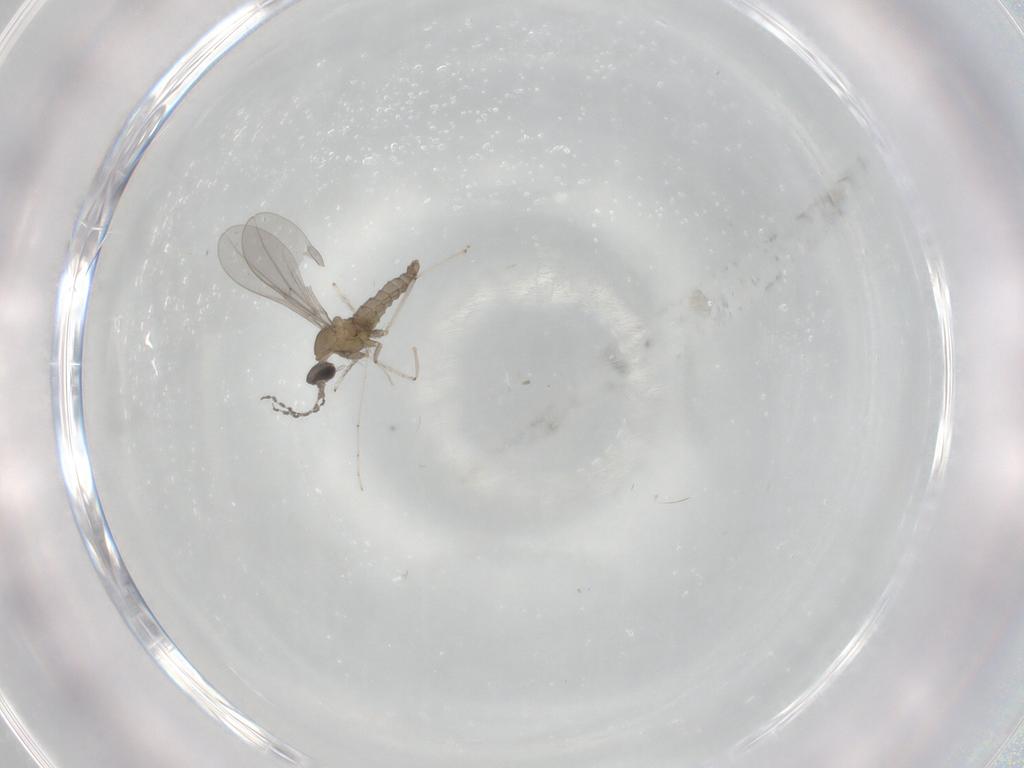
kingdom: Animalia
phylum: Arthropoda
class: Insecta
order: Diptera
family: Cecidomyiidae
